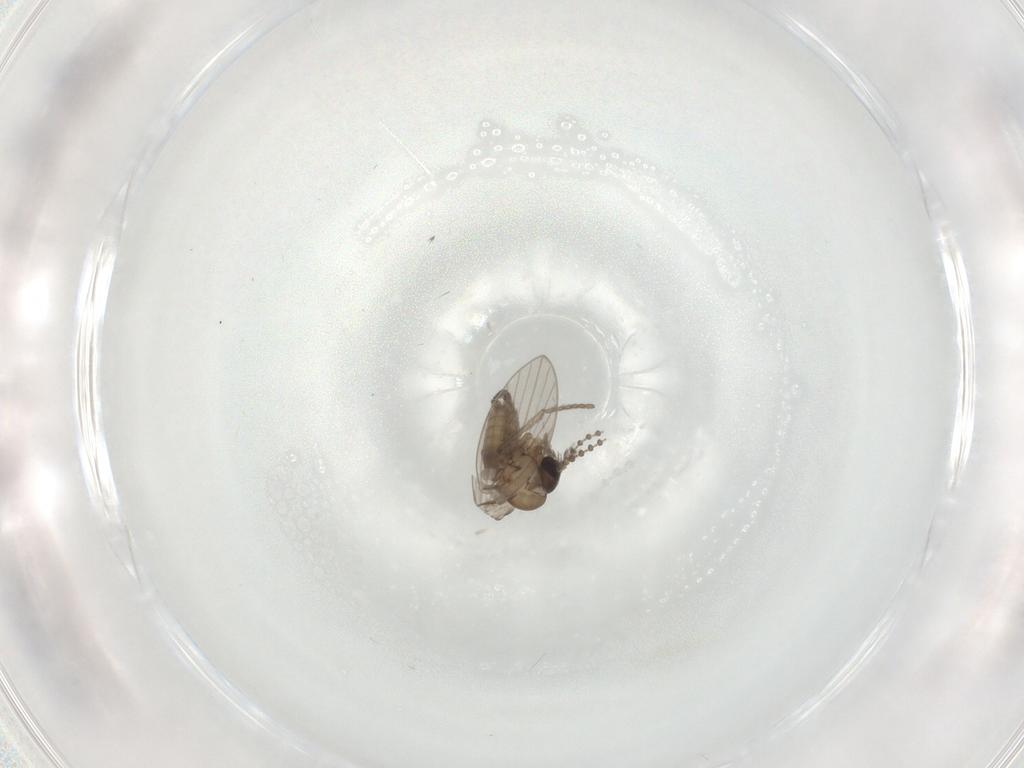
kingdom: Animalia
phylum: Arthropoda
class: Insecta
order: Diptera
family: Psychodidae
